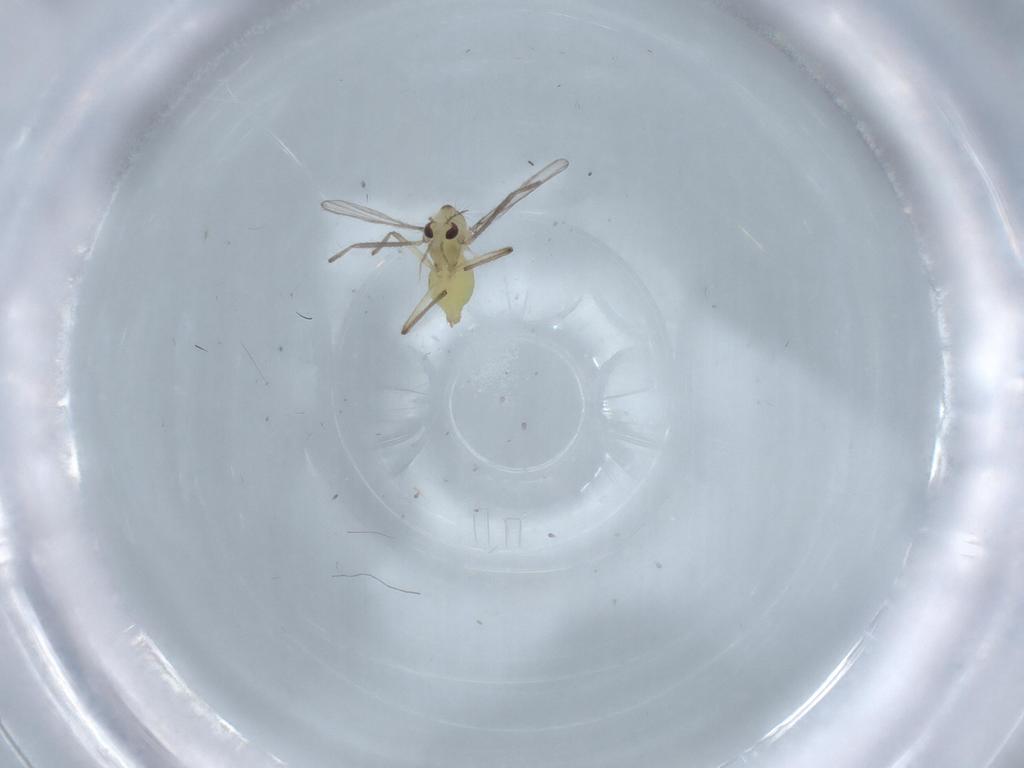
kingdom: Animalia
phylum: Arthropoda
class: Insecta
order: Diptera
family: Chironomidae
